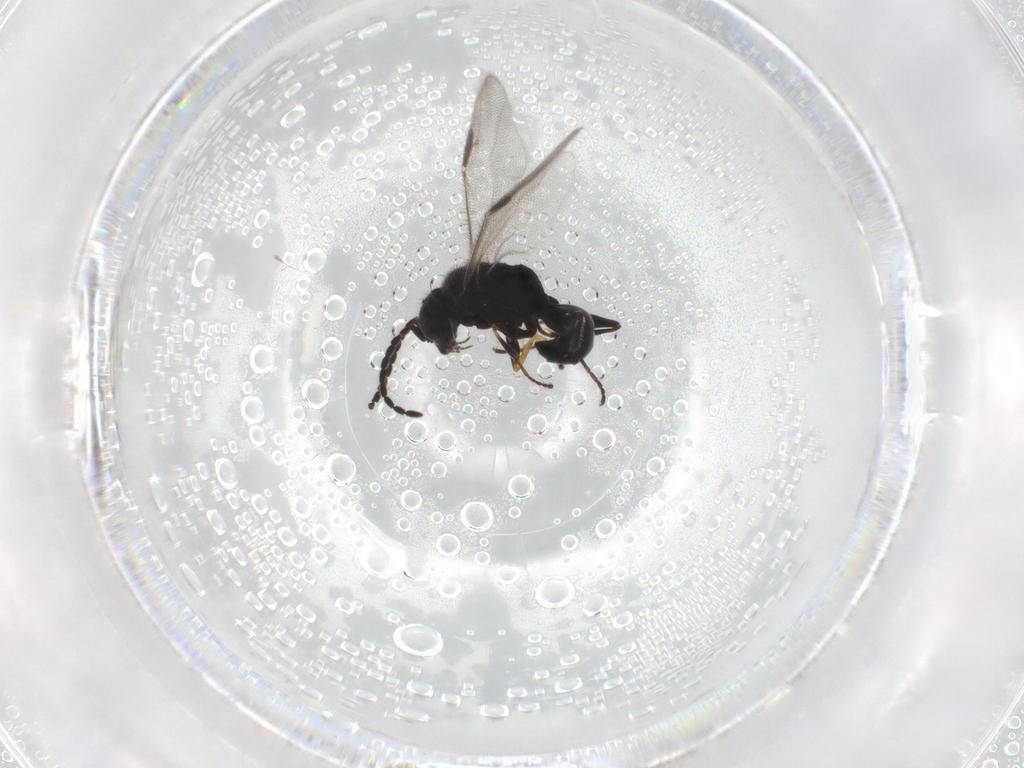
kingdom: Animalia
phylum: Arthropoda
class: Insecta
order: Hymenoptera
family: Dryinidae
